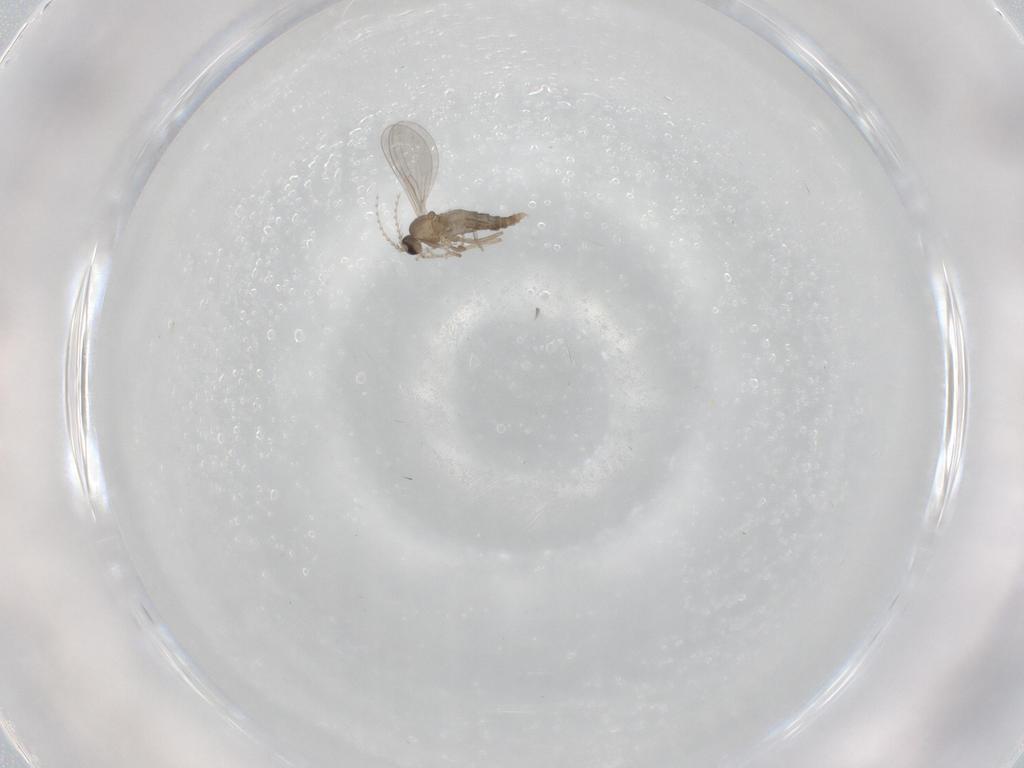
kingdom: Animalia
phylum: Arthropoda
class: Insecta
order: Diptera
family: Cecidomyiidae
